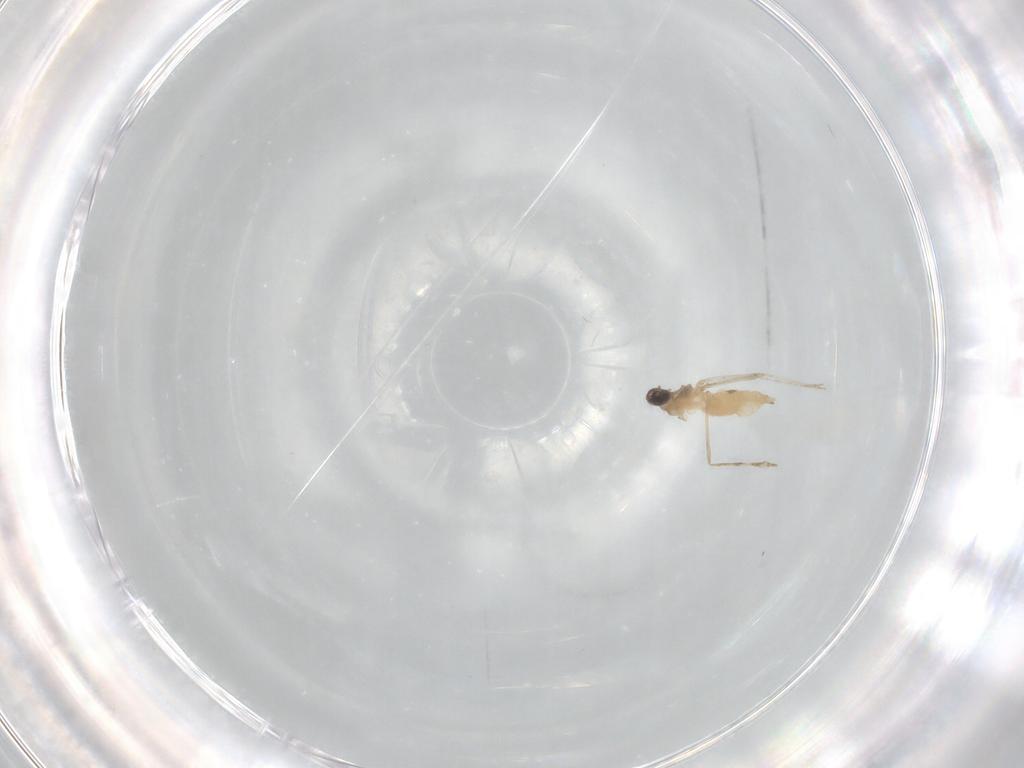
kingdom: Animalia
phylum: Arthropoda
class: Insecta
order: Diptera
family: Cecidomyiidae
